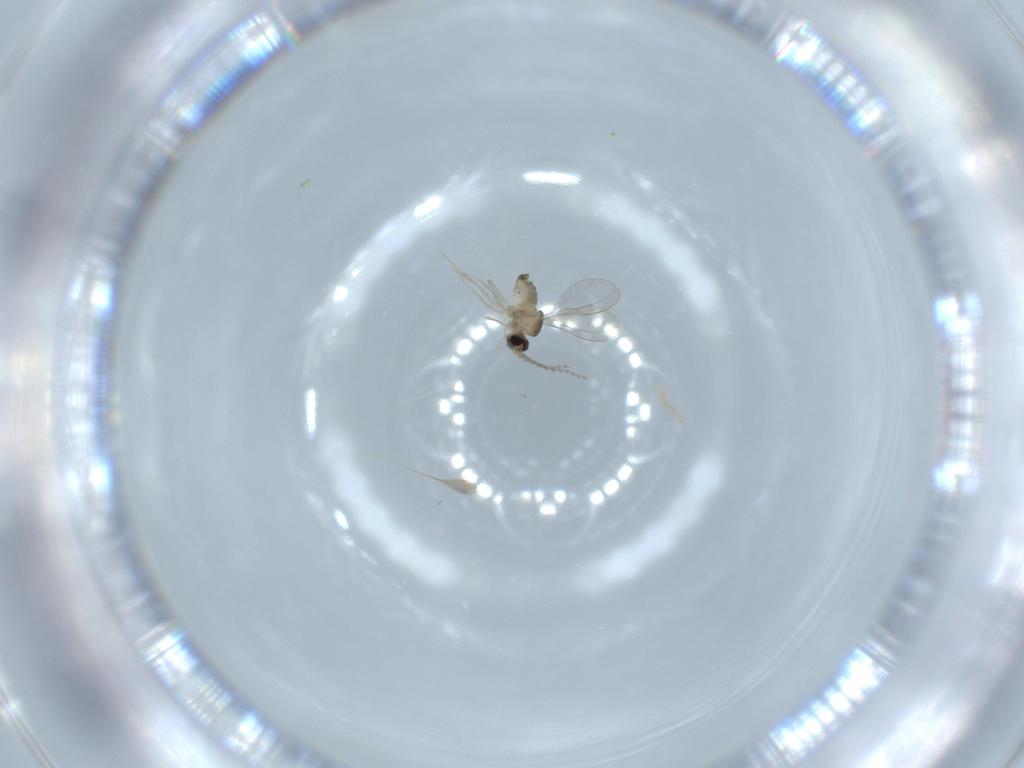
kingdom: Animalia
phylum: Arthropoda
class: Insecta
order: Diptera
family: Cecidomyiidae
